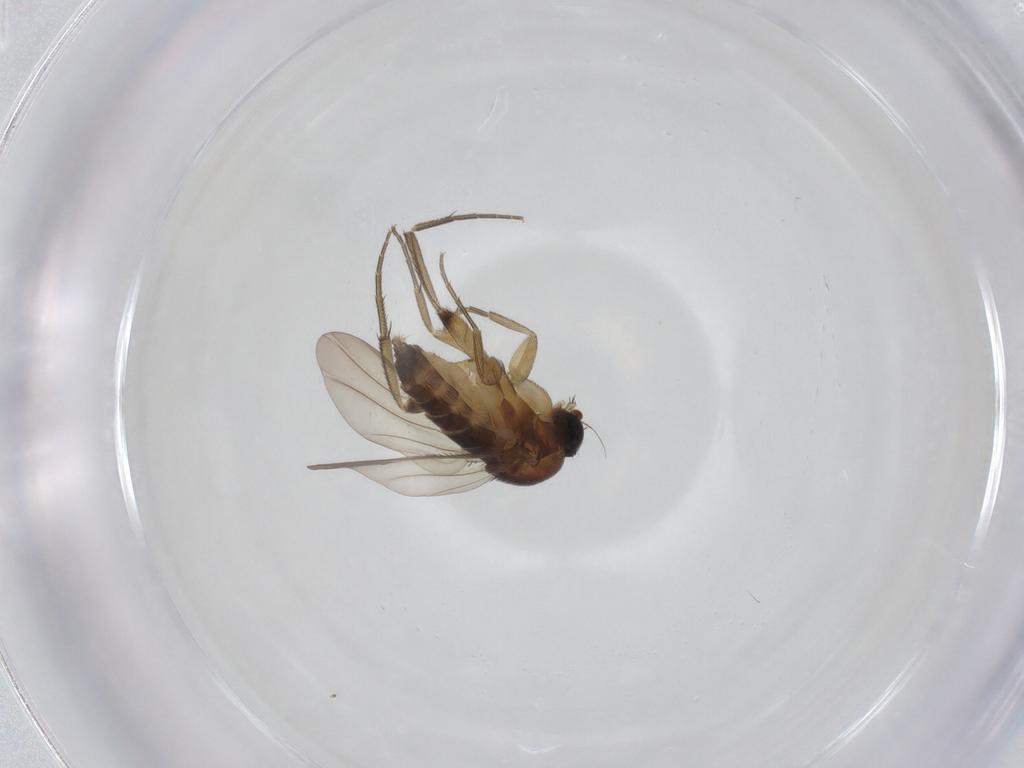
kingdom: Animalia
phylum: Arthropoda
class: Insecta
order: Diptera
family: Phoridae
